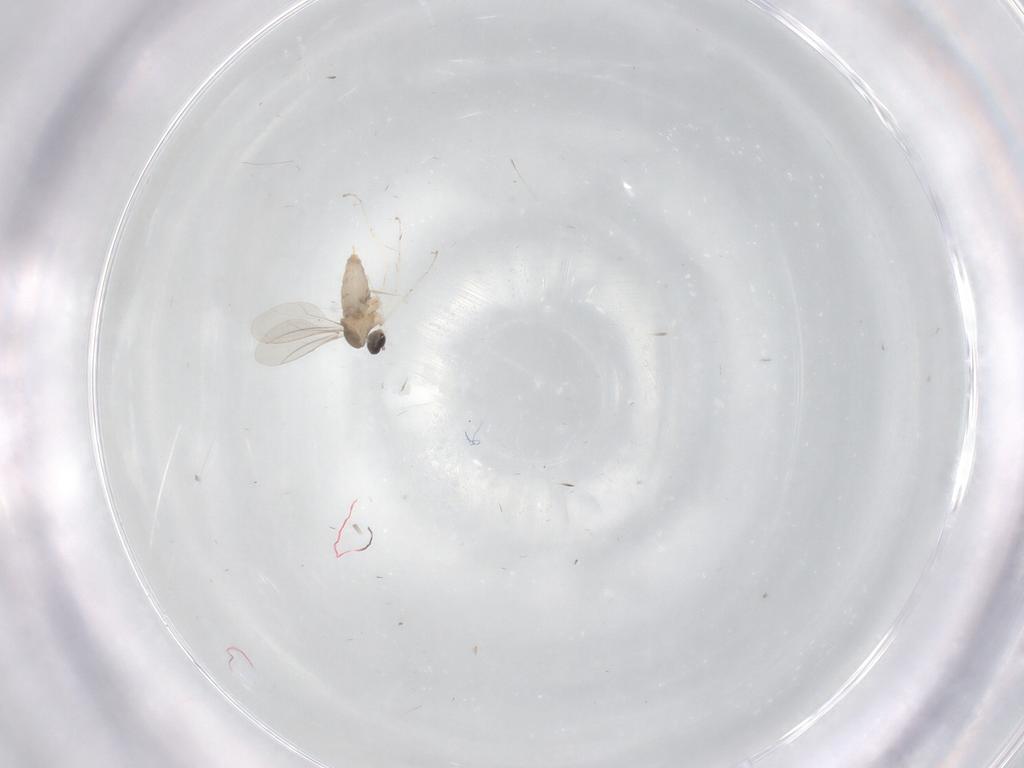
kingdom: Animalia
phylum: Arthropoda
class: Insecta
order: Diptera
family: Cecidomyiidae
